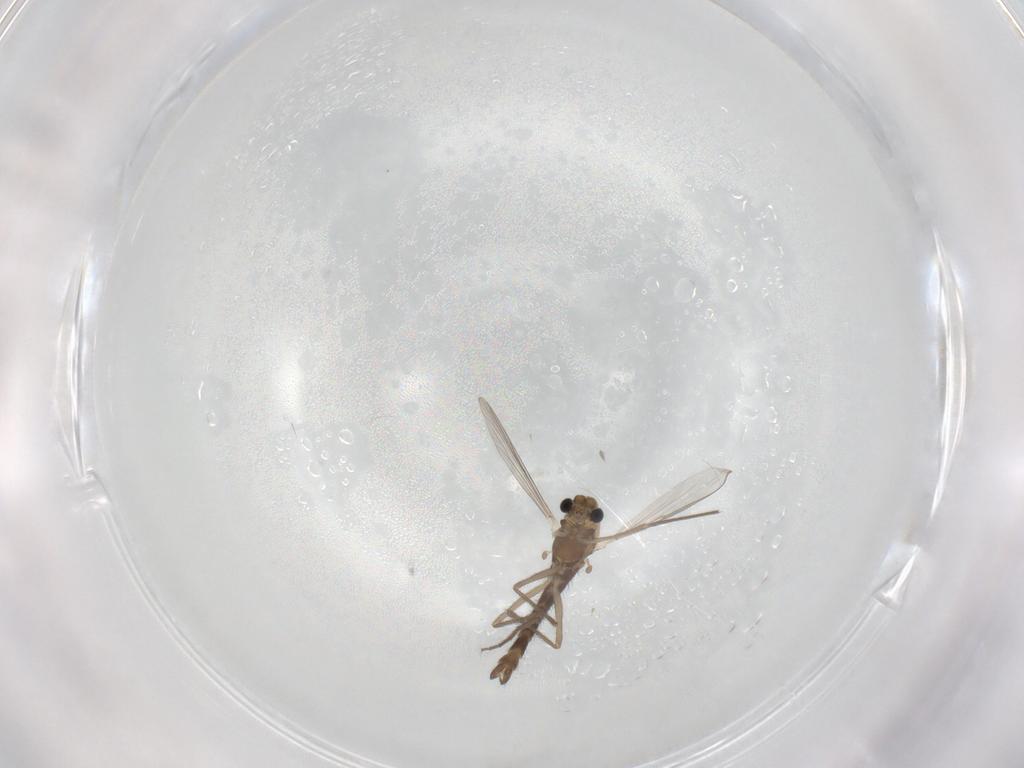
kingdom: Animalia
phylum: Arthropoda
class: Insecta
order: Diptera
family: Chironomidae
